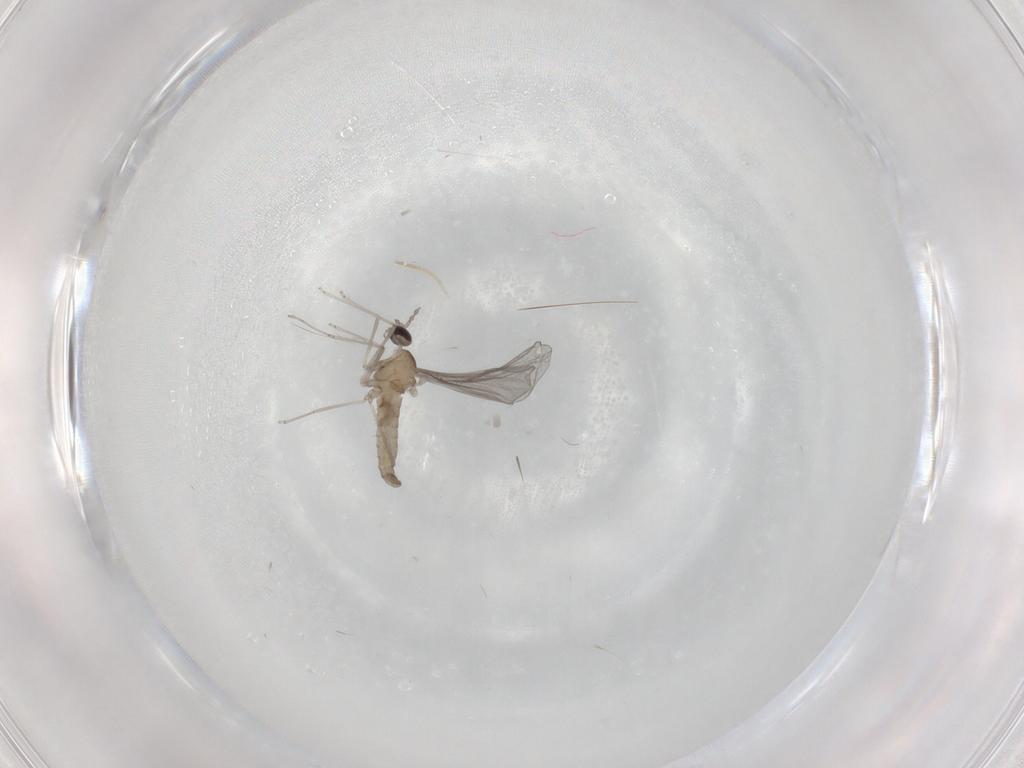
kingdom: Animalia
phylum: Arthropoda
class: Insecta
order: Diptera
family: Cecidomyiidae
